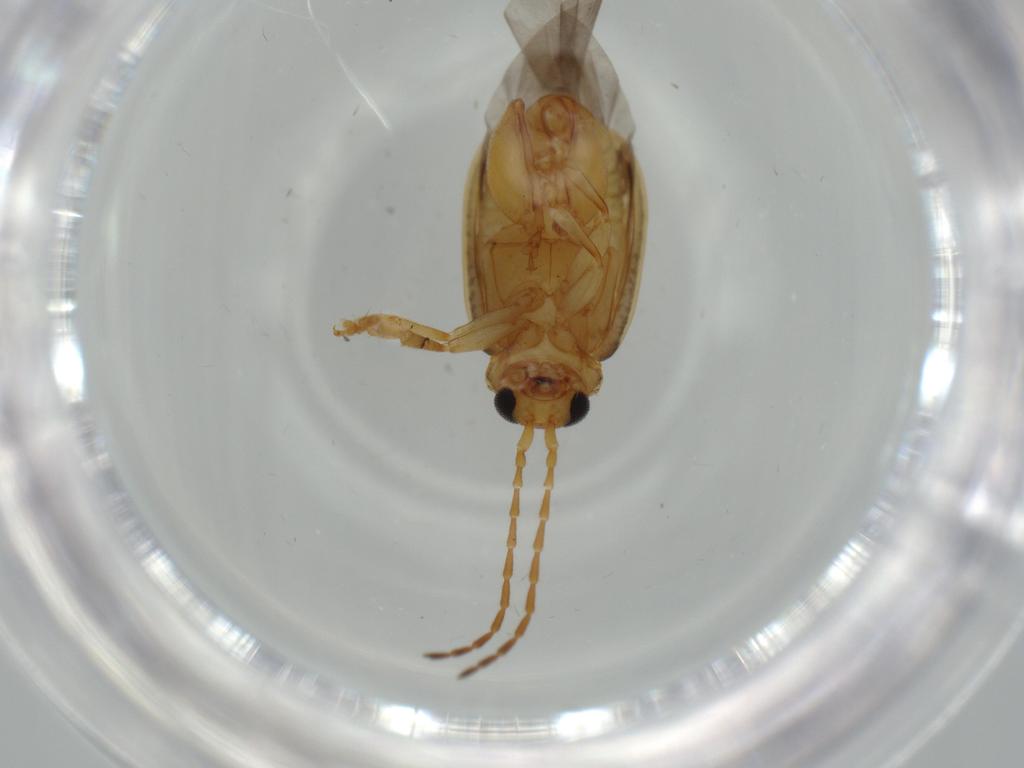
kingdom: Animalia
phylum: Arthropoda
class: Insecta
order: Coleoptera
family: Chrysomelidae
